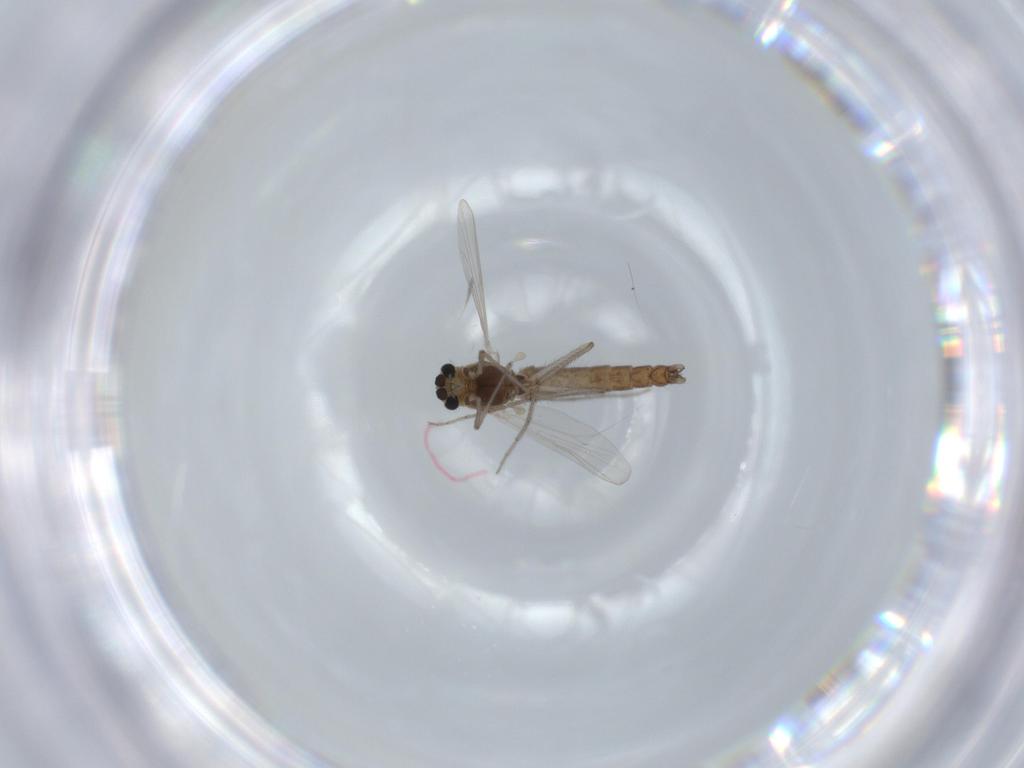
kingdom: Animalia
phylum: Arthropoda
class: Insecta
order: Diptera
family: Chironomidae
